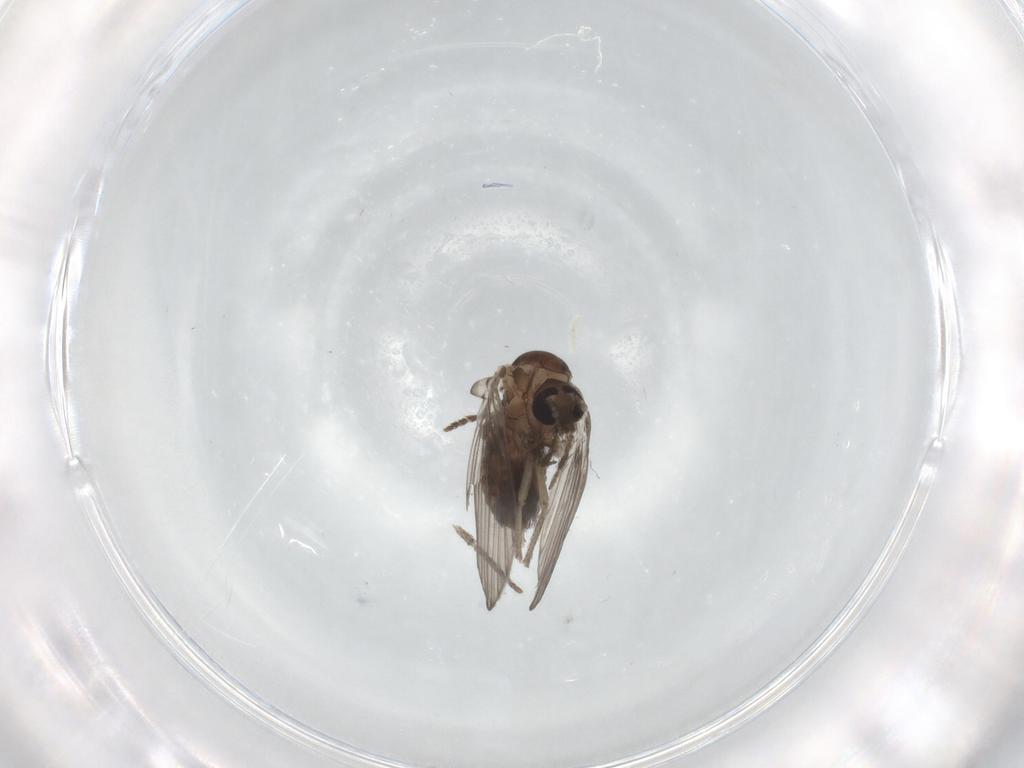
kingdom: Animalia
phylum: Arthropoda
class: Insecta
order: Diptera
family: Psychodidae
